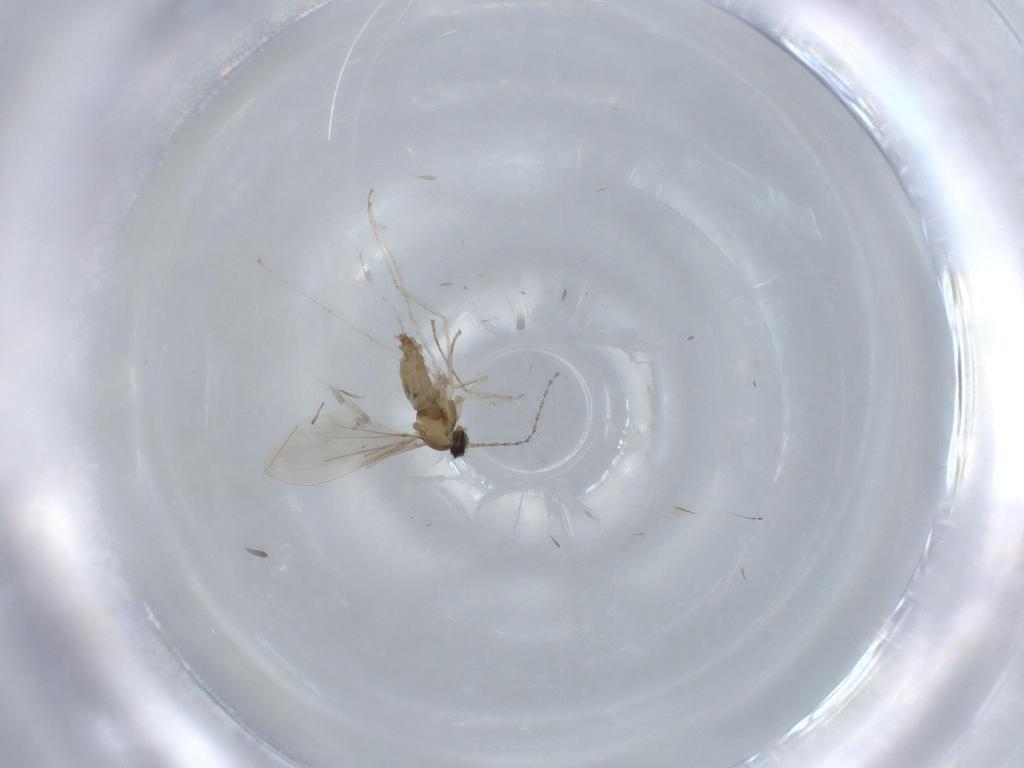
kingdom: Animalia
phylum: Arthropoda
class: Insecta
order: Diptera
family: Cecidomyiidae
